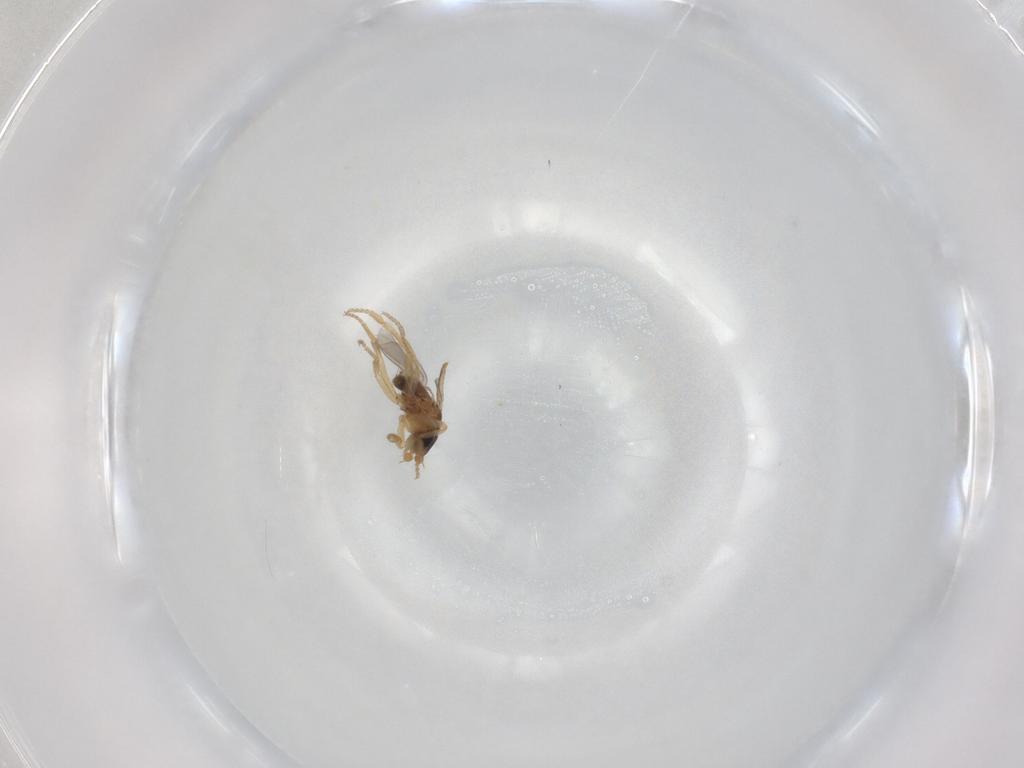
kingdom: Animalia
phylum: Arthropoda
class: Insecta
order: Diptera
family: Phoridae
